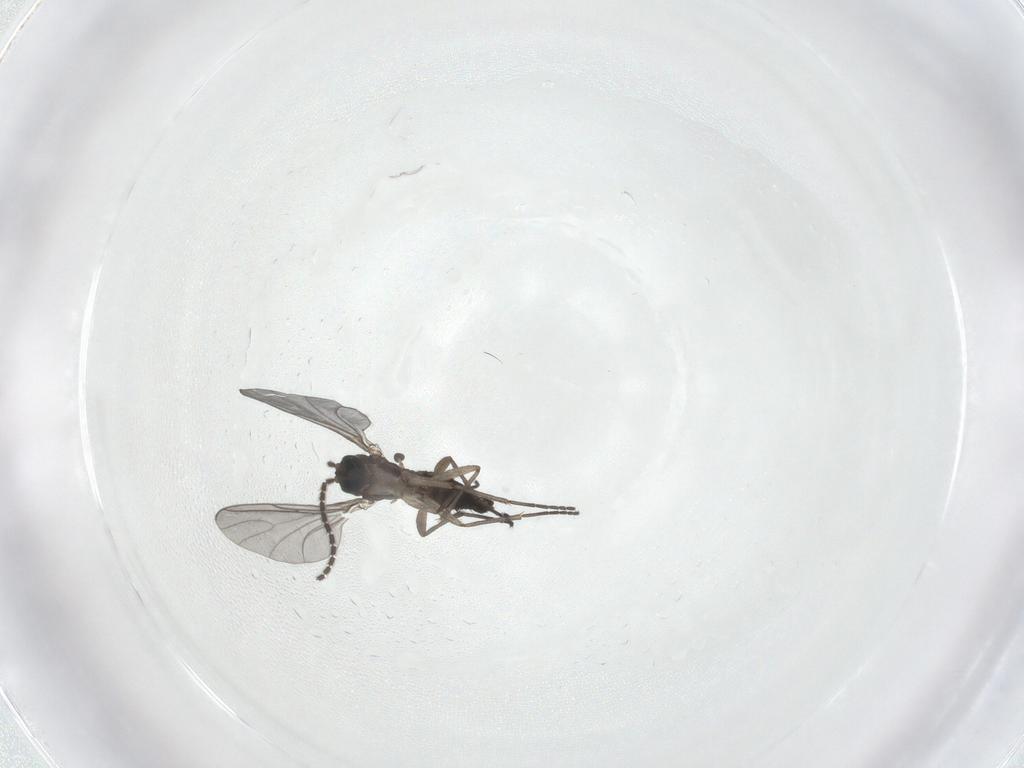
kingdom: Animalia
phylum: Arthropoda
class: Insecta
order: Diptera
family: Sciaridae
